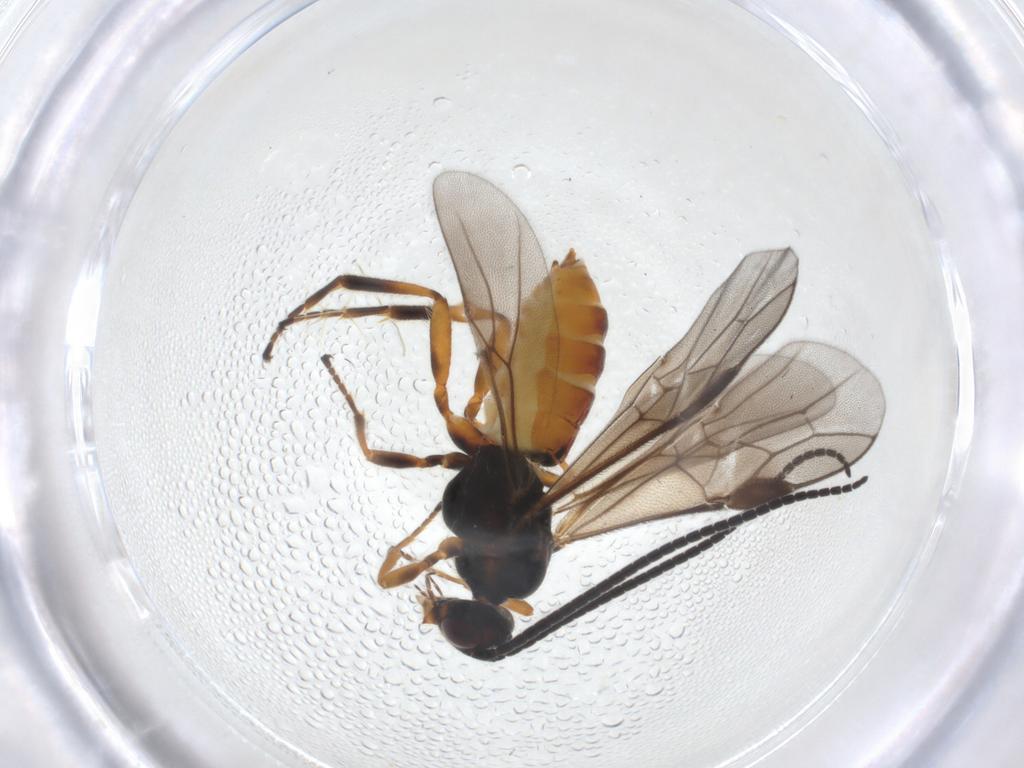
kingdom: Animalia
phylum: Arthropoda
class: Insecta
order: Hymenoptera
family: Braconidae
